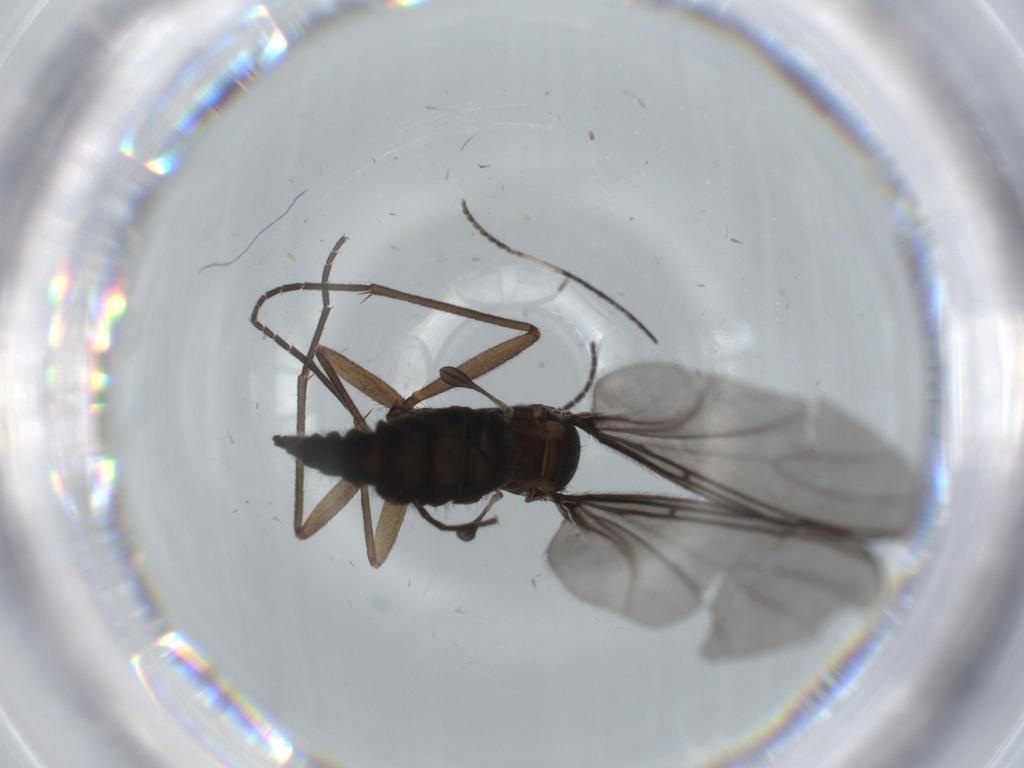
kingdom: Animalia
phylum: Arthropoda
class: Insecta
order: Diptera
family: Sciaridae
